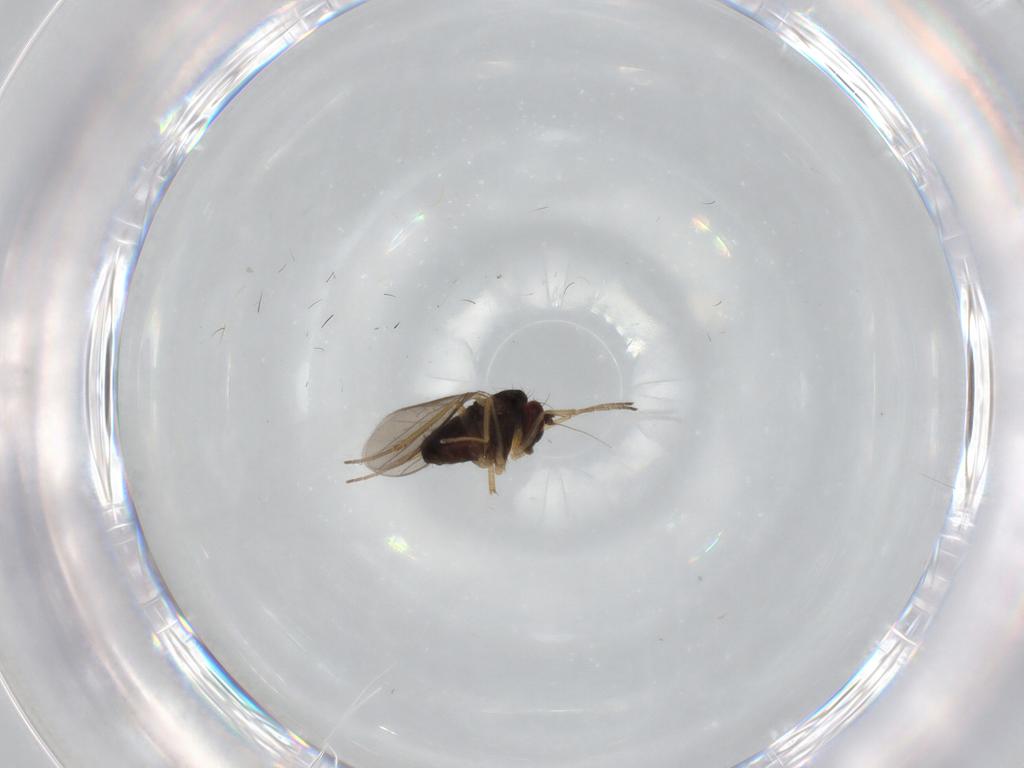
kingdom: Animalia
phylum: Arthropoda
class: Insecta
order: Diptera
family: Dolichopodidae
